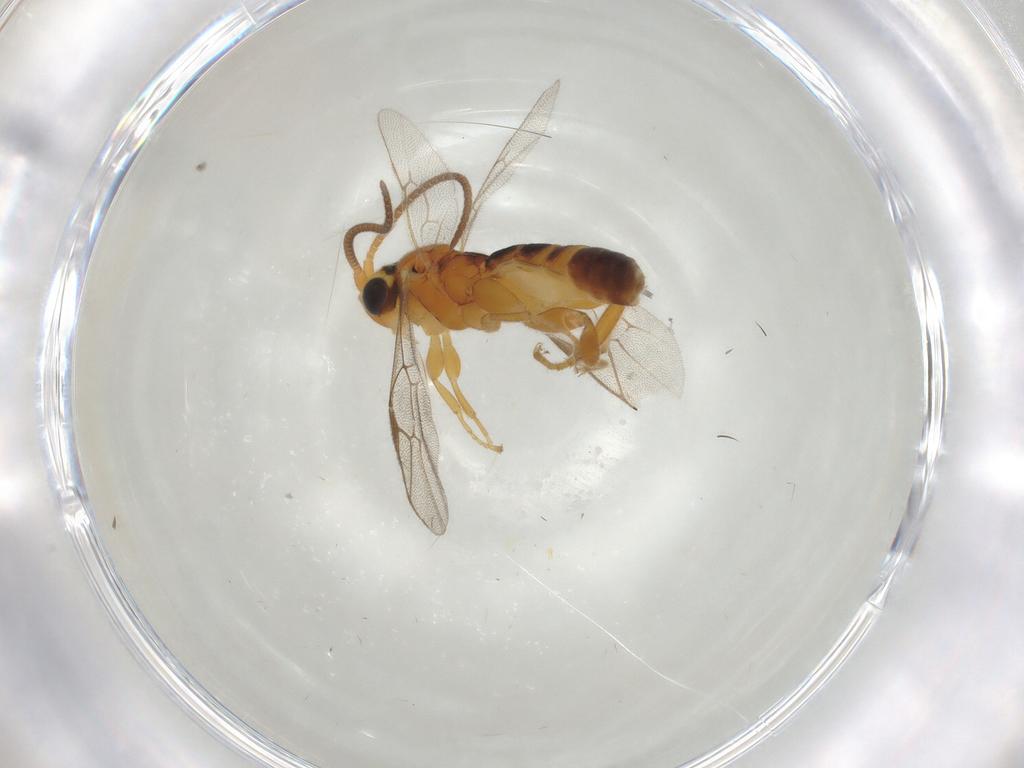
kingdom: Animalia
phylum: Arthropoda
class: Insecta
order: Hymenoptera
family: Ichneumonidae
